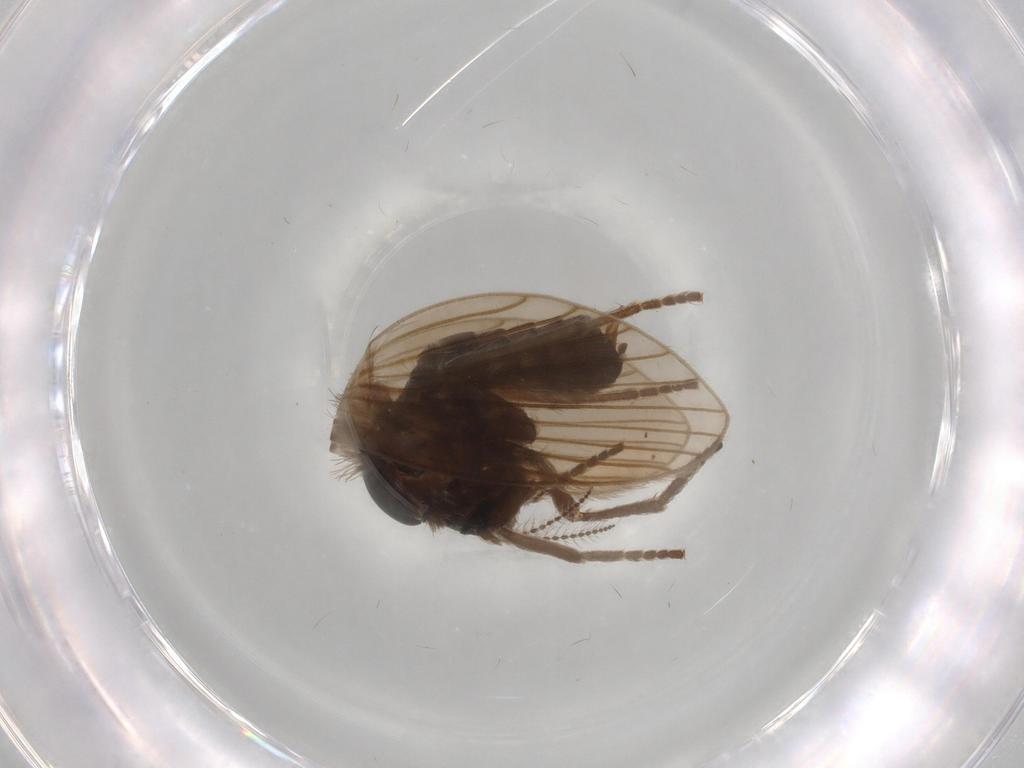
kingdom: Animalia
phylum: Arthropoda
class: Insecta
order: Diptera
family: Psychodidae
